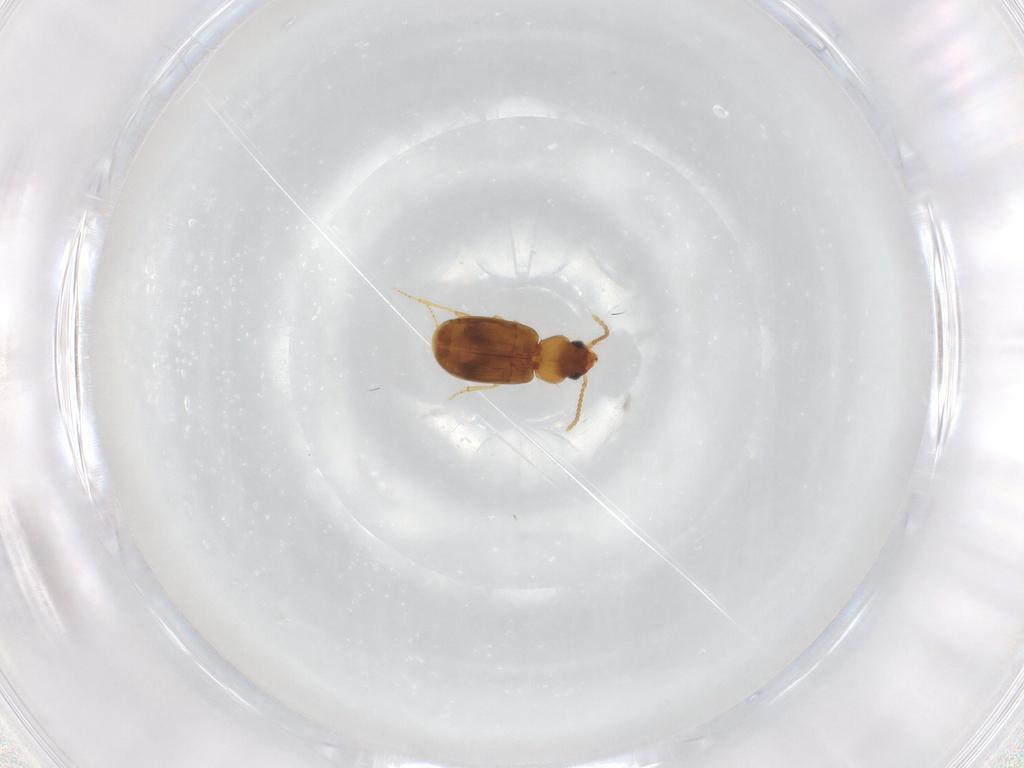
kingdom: Animalia
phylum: Arthropoda
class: Insecta
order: Coleoptera
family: Carabidae
